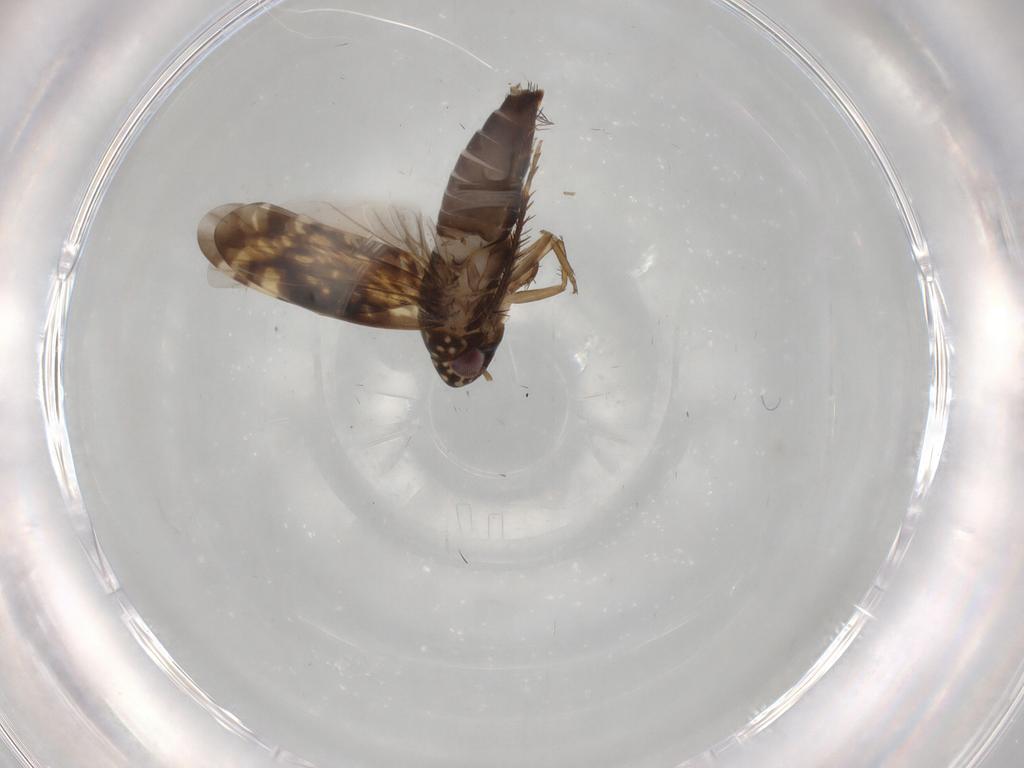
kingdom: Animalia
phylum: Arthropoda
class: Insecta
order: Hemiptera
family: Cicadellidae
